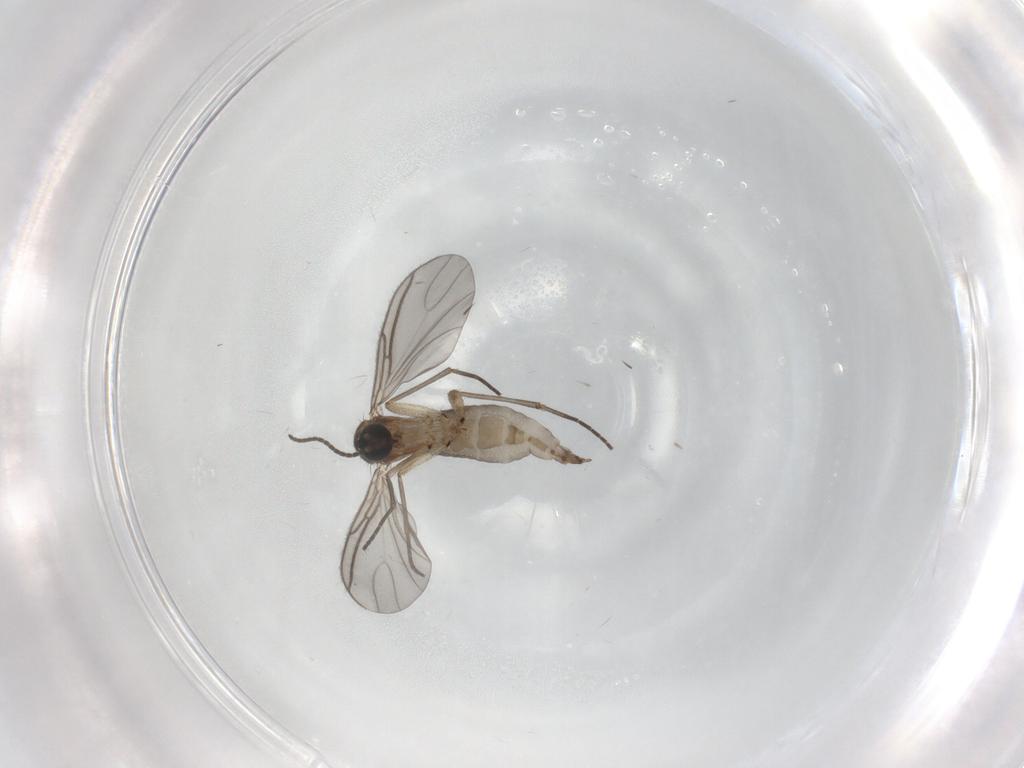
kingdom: Animalia
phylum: Arthropoda
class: Insecta
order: Diptera
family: Sciaridae
